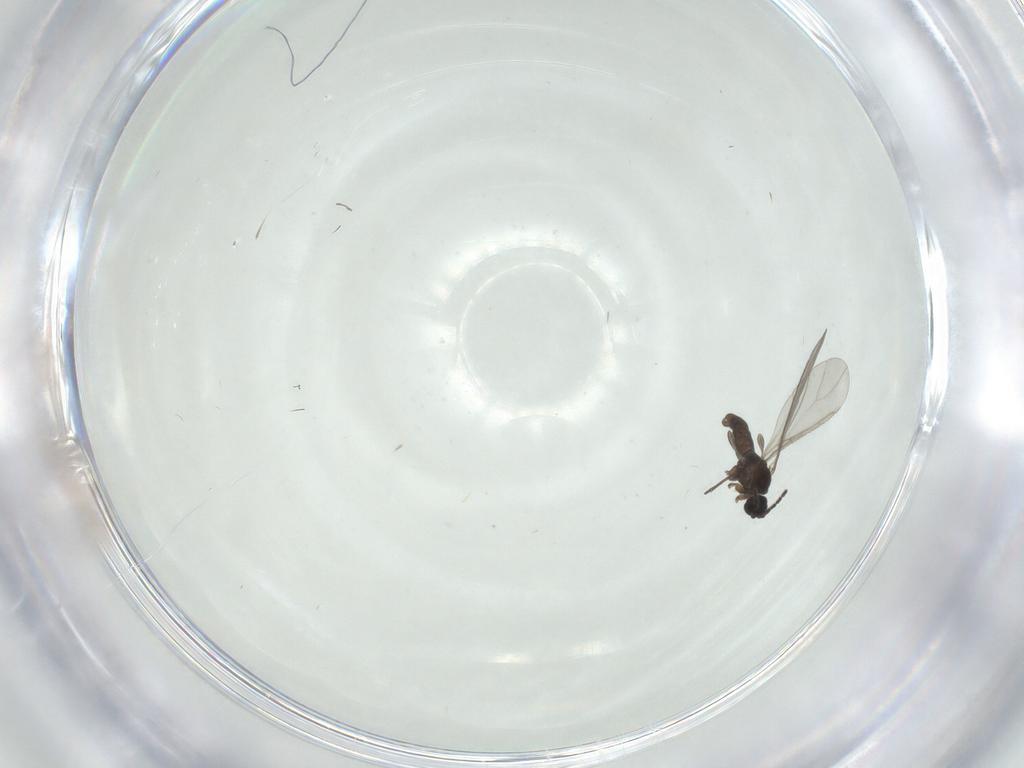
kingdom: Animalia
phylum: Arthropoda
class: Insecta
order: Diptera
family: Sciaridae
